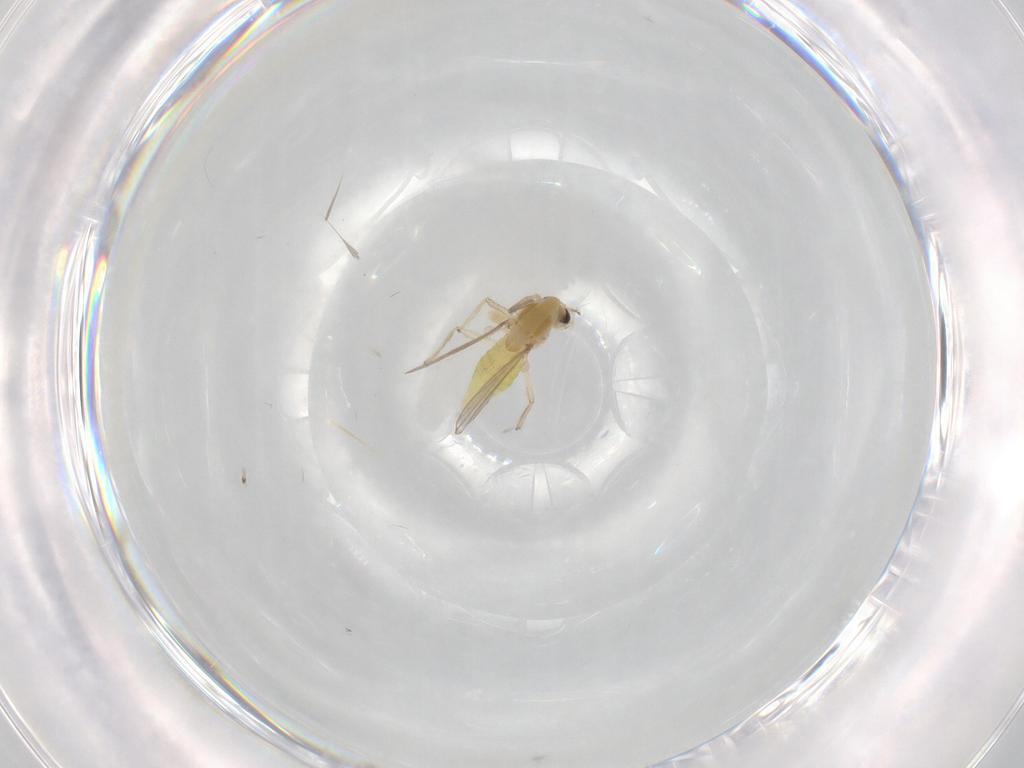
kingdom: Animalia
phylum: Arthropoda
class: Insecta
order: Diptera
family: Chironomidae
